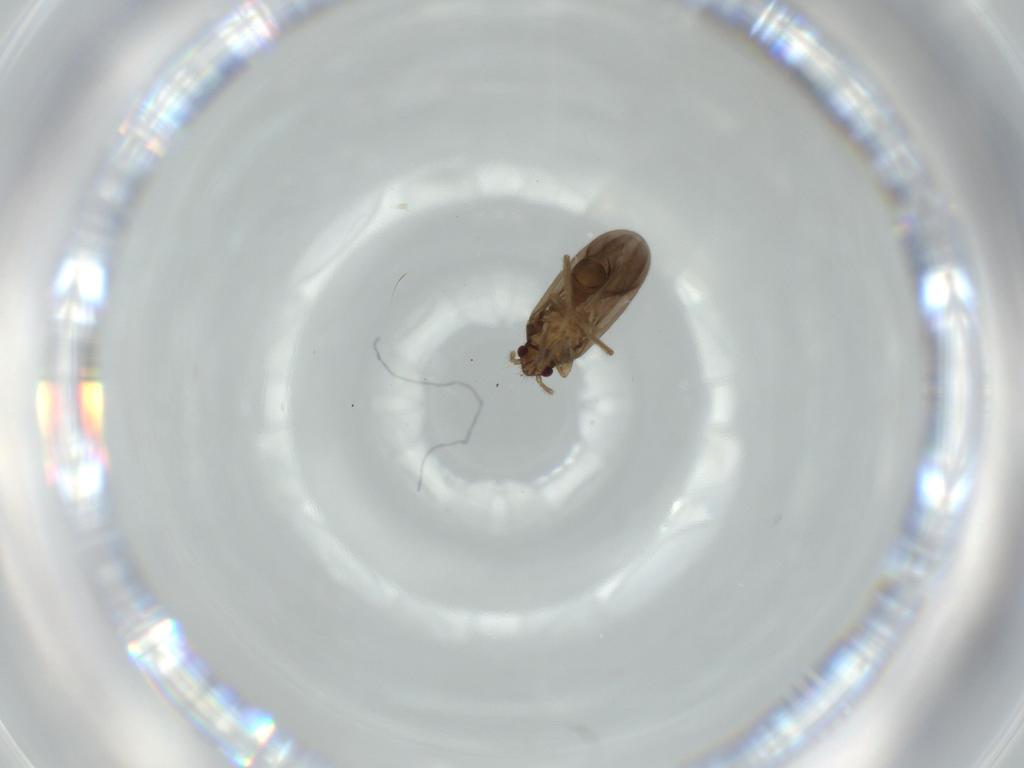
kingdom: Animalia
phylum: Arthropoda
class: Insecta
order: Hemiptera
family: Ceratocombidae
